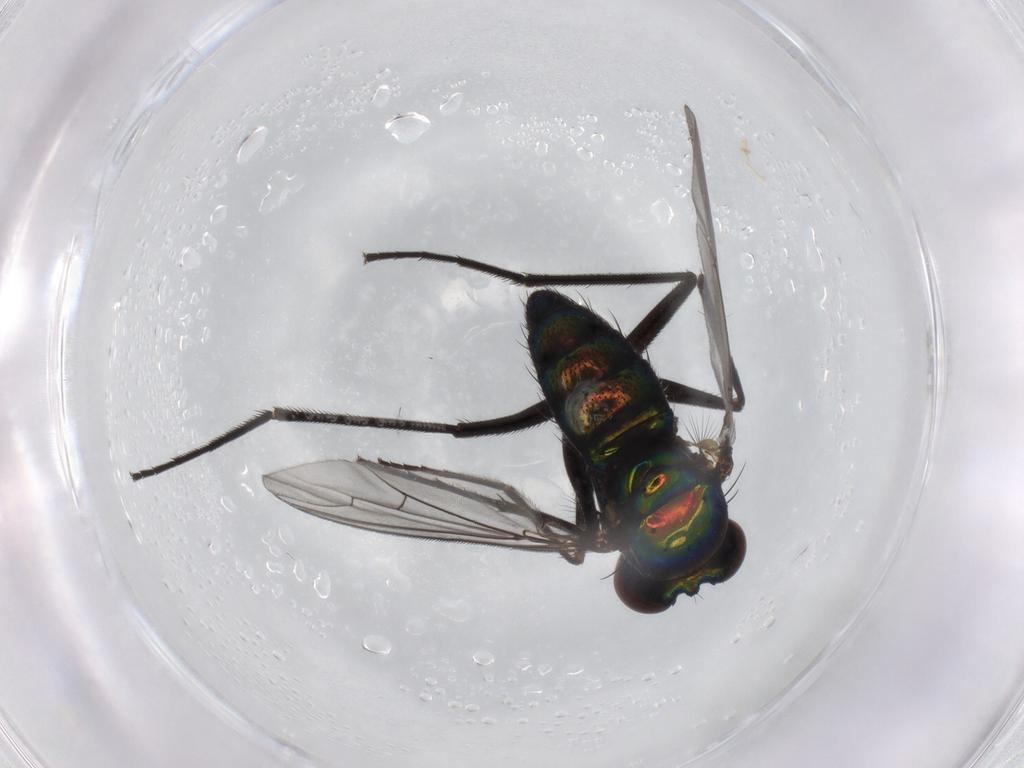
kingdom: Animalia
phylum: Arthropoda
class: Insecta
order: Diptera
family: Dolichopodidae
